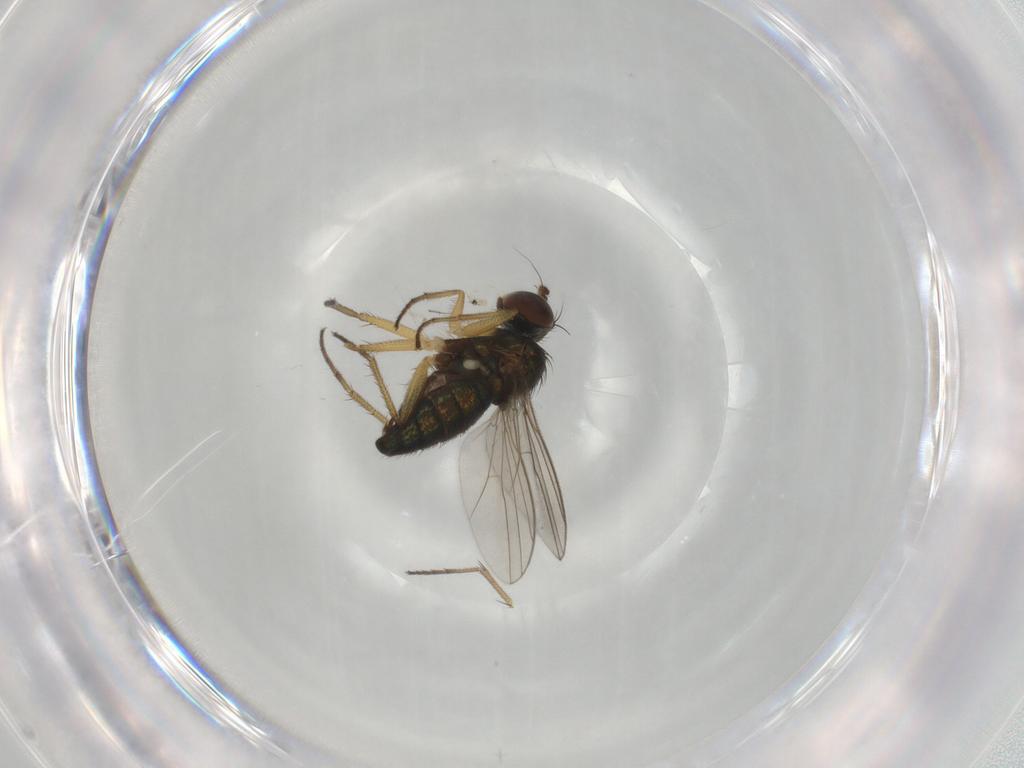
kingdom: Animalia
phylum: Arthropoda
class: Insecta
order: Diptera
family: Dolichopodidae
